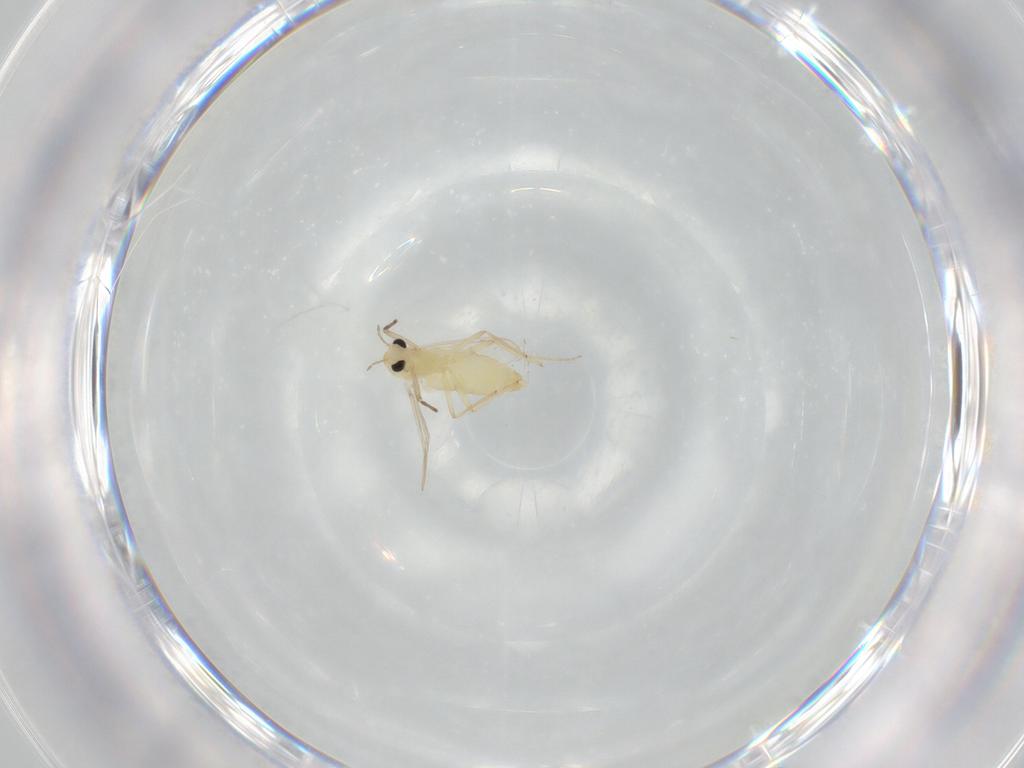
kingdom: Animalia
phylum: Arthropoda
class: Insecta
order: Diptera
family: Chironomidae
